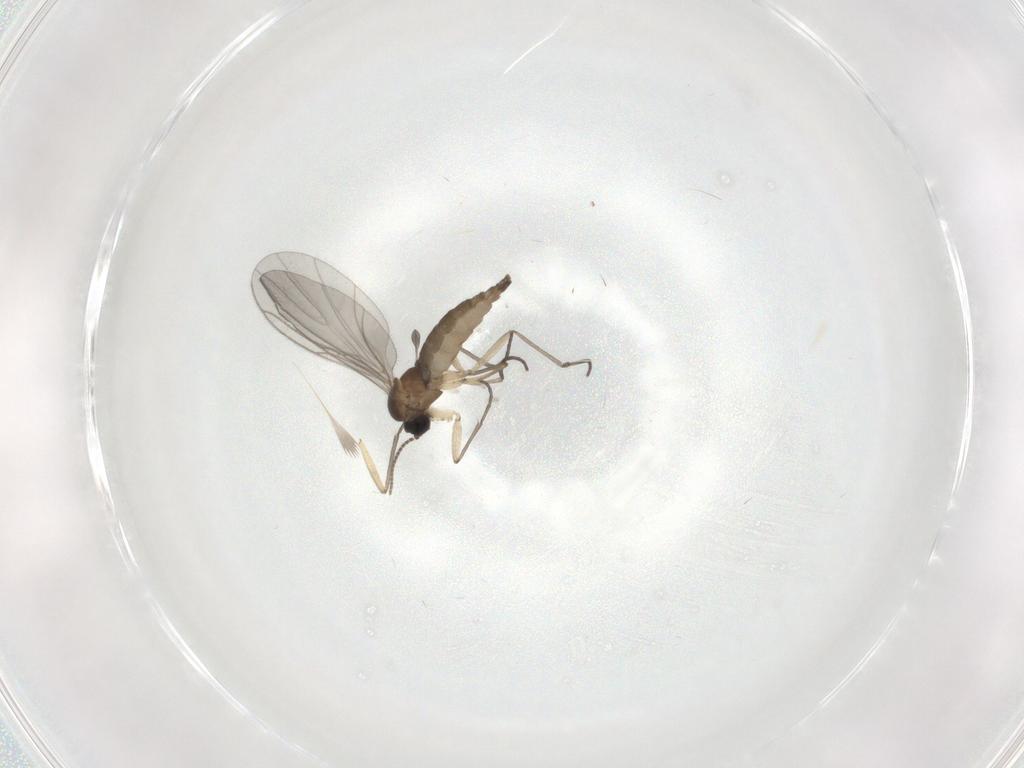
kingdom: Animalia
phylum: Arthropoda
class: Insecta
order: Diptera
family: Sciaridae
